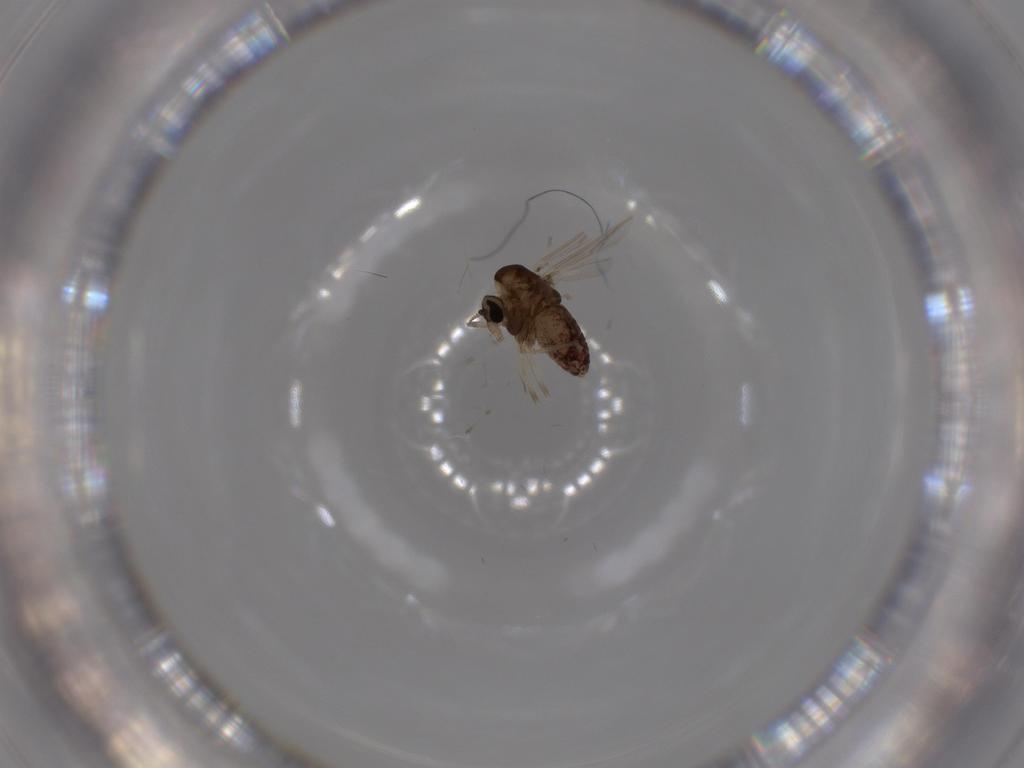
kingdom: Animalia
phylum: Arthropoda
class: Insecta
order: Diptera
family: Chironomidae
